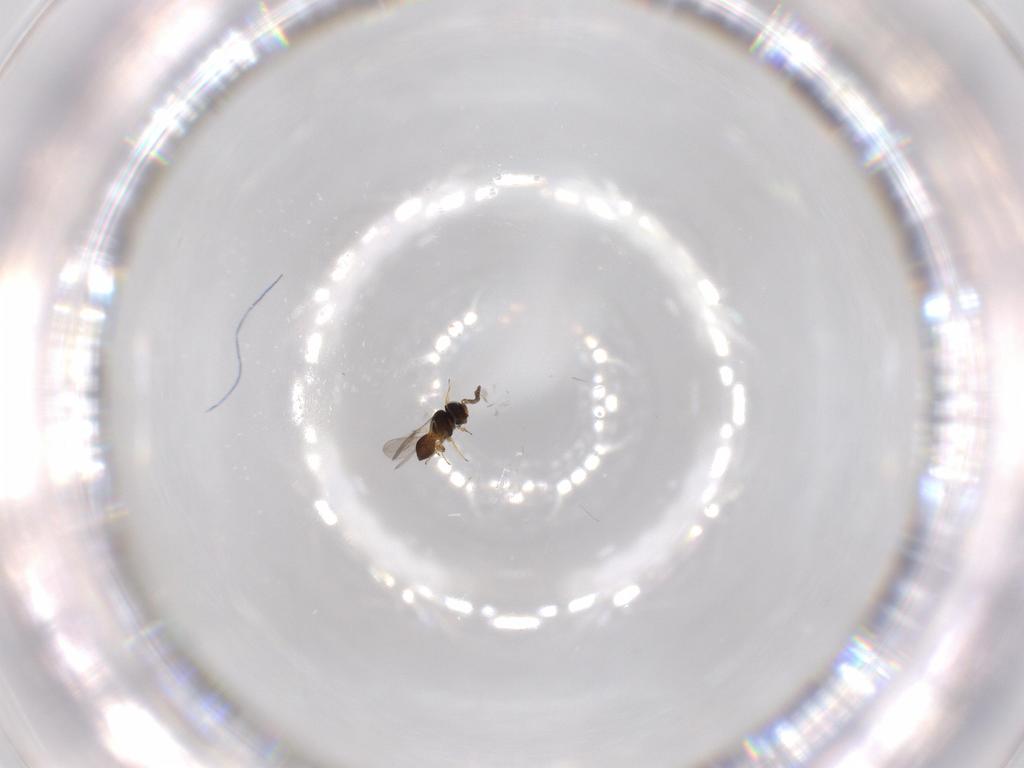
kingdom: Animalia
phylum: Arthropoda
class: Insecta
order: Hymenoptera
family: Scelionidae
